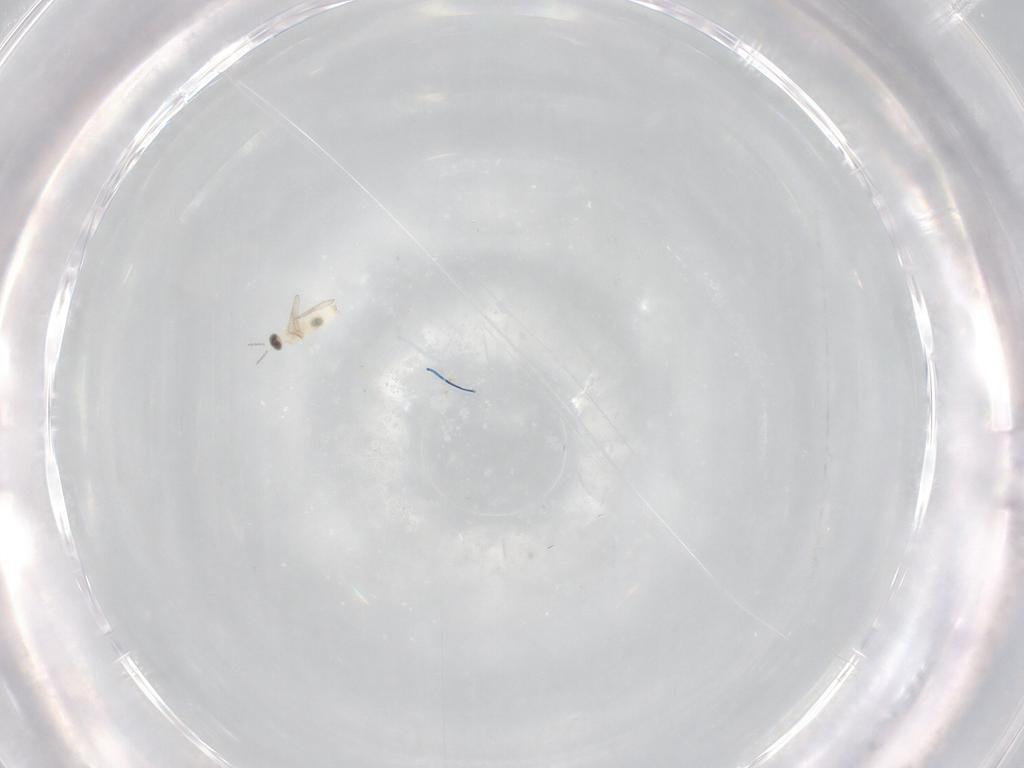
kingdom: Animalia
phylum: Arthropoda
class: Insecta
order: Diptera
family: Cecidomyiidae
